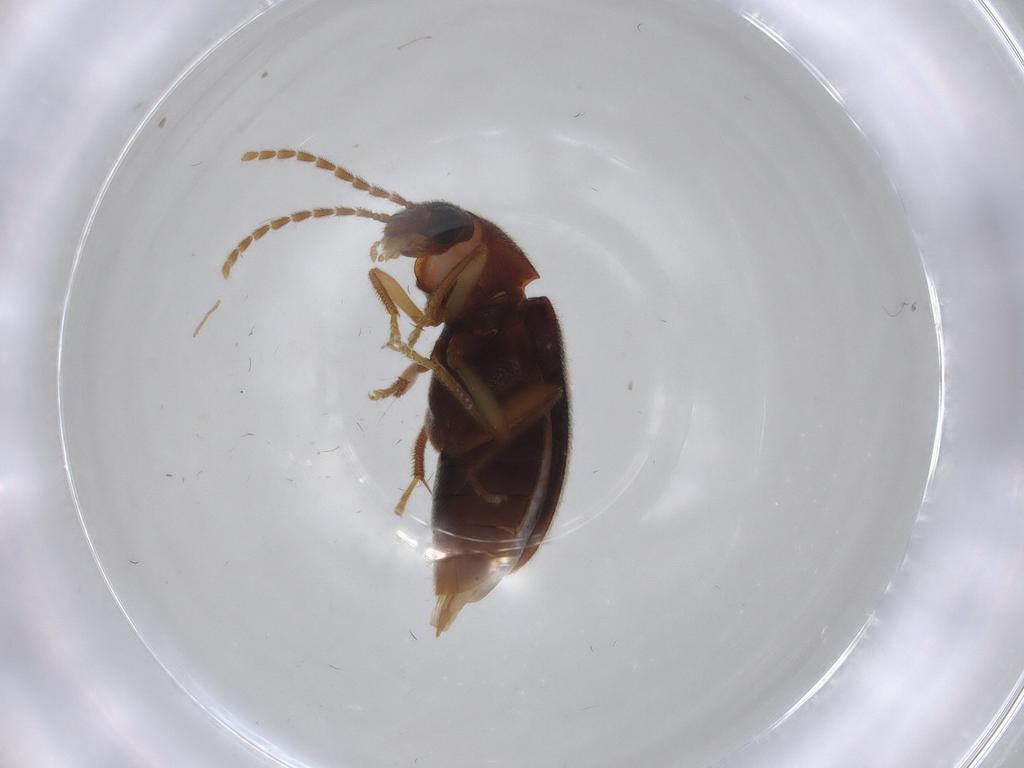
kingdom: Animalia
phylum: Arthropoda
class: Insecta
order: Coleoptera
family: Ptilodactylidae
